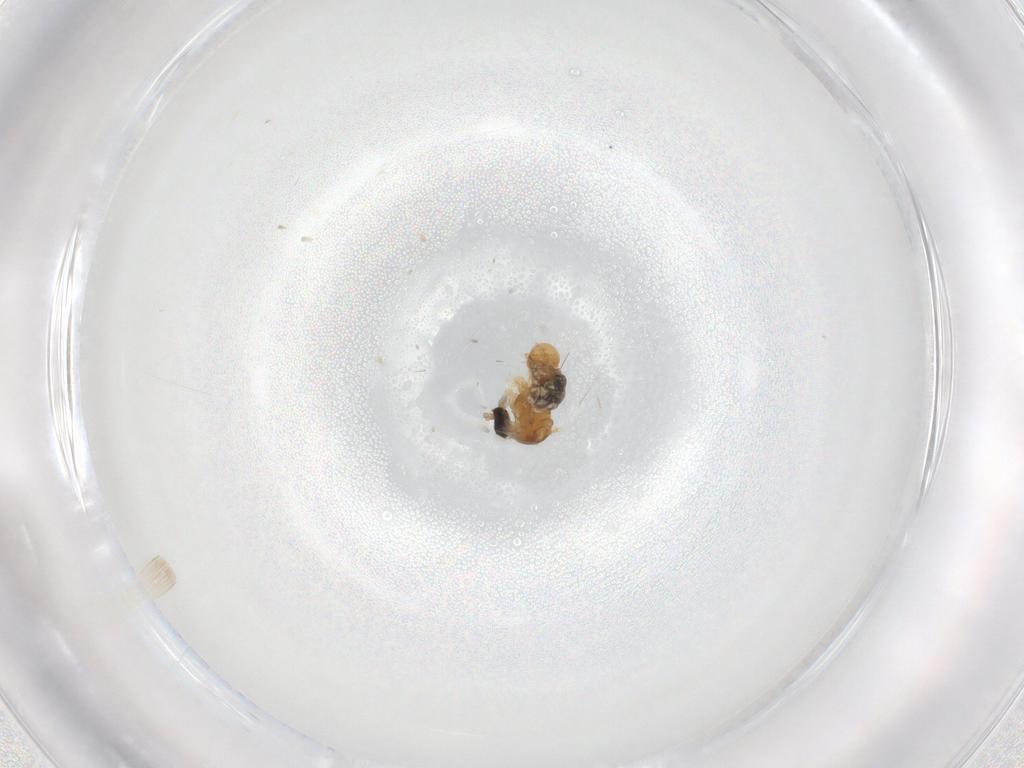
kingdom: Animalia
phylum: Arthropoda
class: Insecta
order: Diptera
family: Cecidomyiidae
